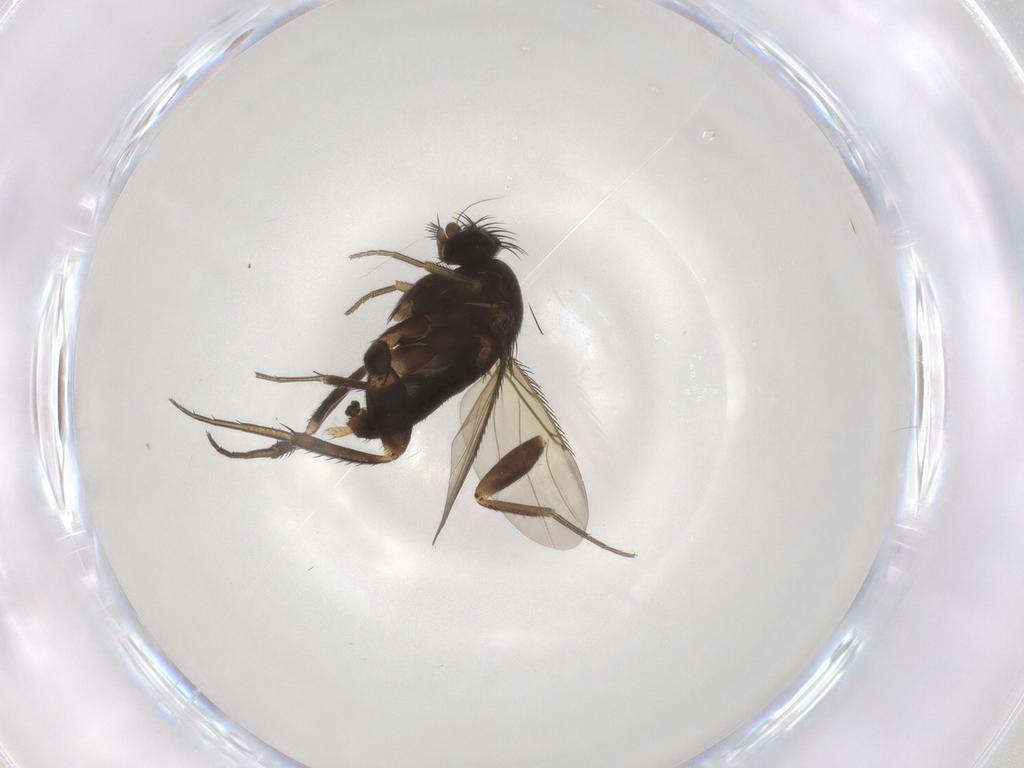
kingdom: Animalia
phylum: Arthropoda
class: Insecta
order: Diptera
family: Phoridae
